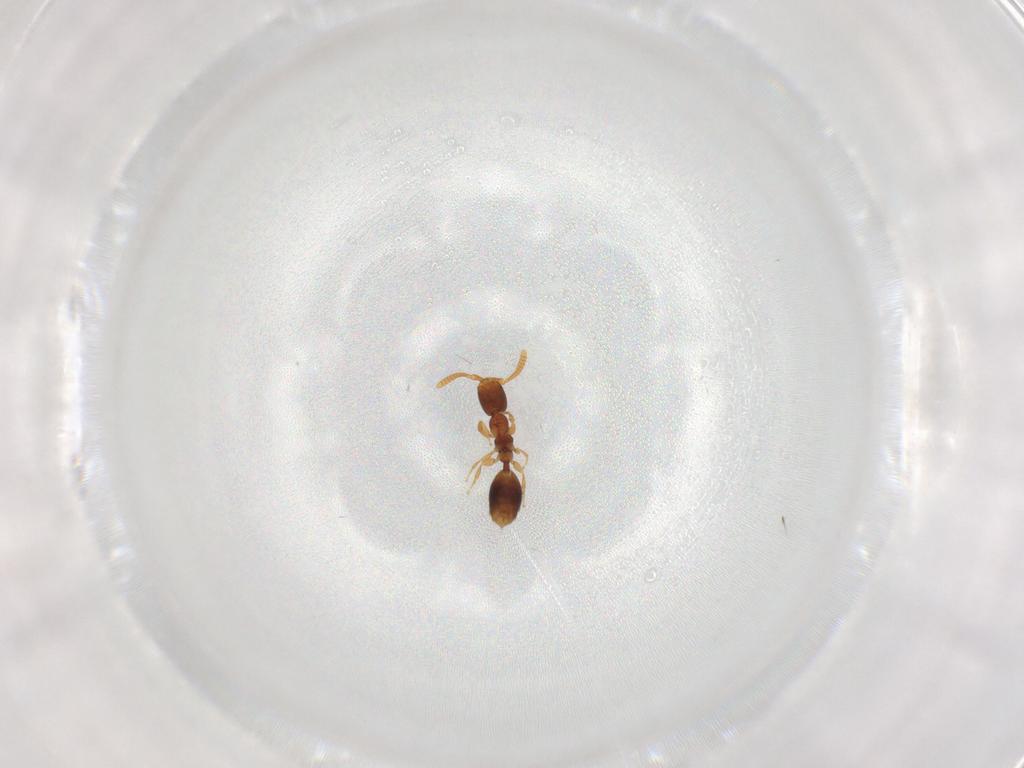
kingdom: Animalia
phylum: Arthropoda
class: Insecta
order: Hymenoptera
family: Bethylidae
